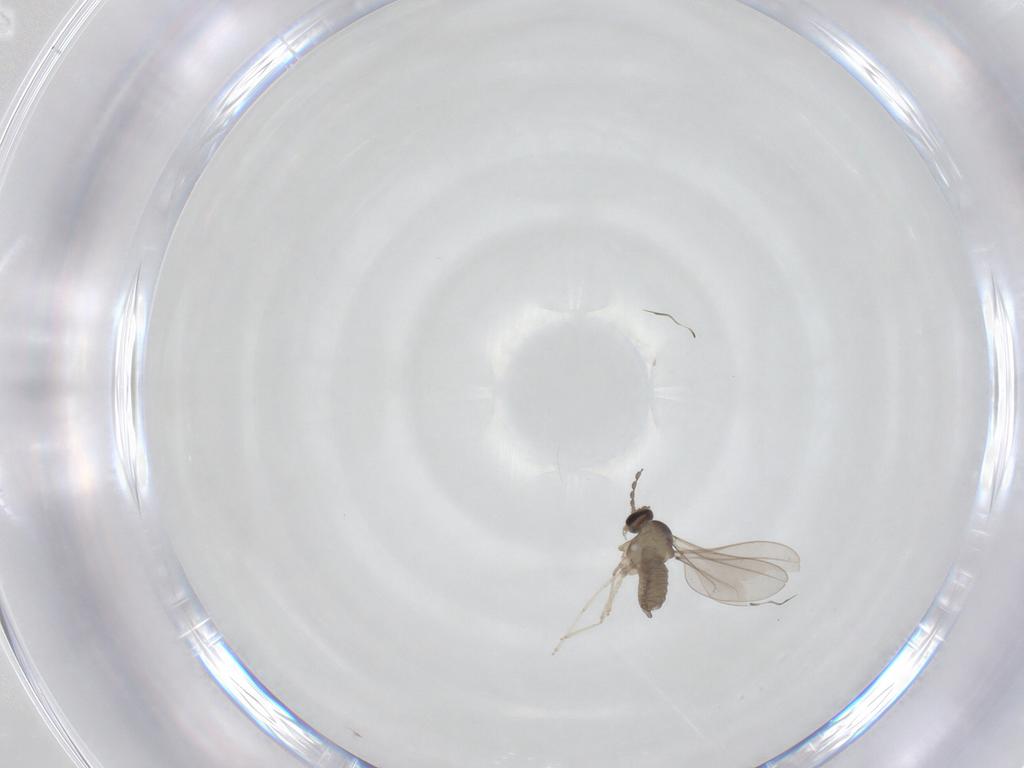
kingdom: Animalia
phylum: Arthropoda
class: Insecta
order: Diptera
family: Cecidomyiidae
